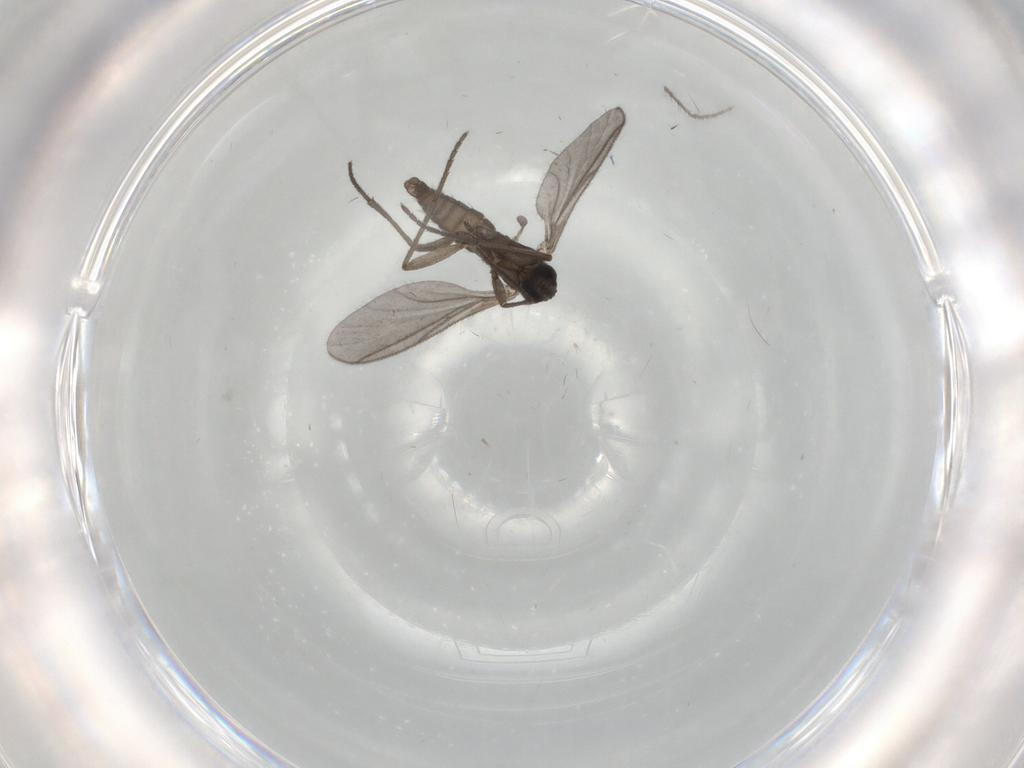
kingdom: Animalia
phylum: Arthropoda
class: Insecta
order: Diptera
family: Sciaridae
